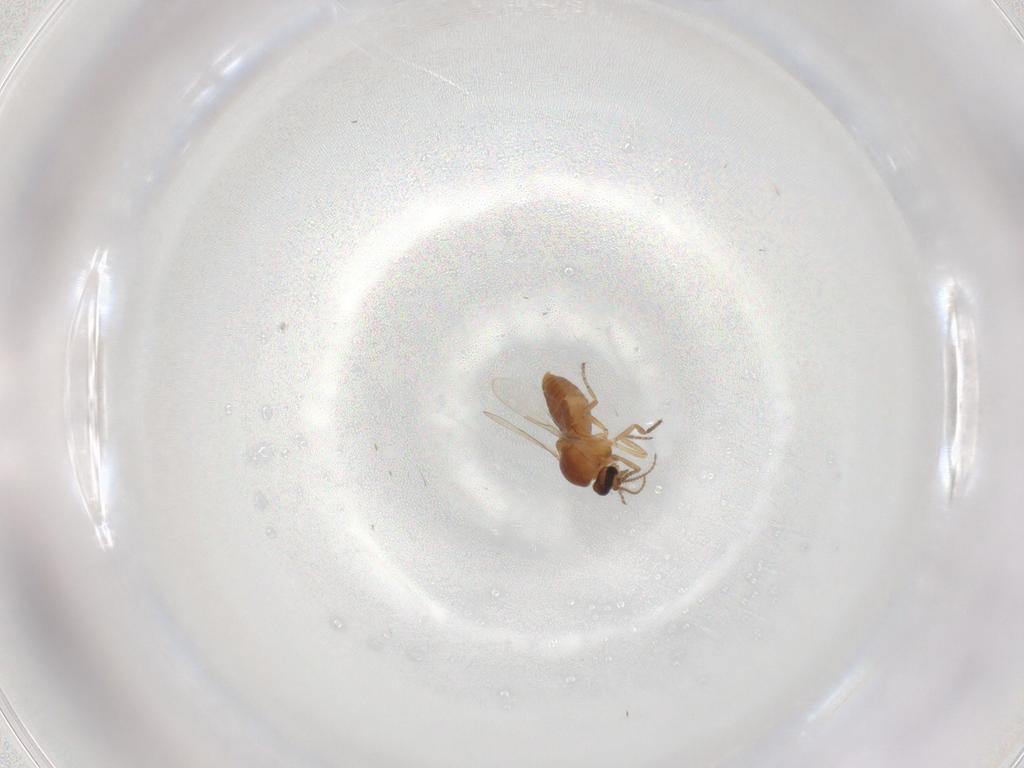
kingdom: Animalia
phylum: Arthropoda
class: Insecta
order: Diptera
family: Ceratopogonidae
